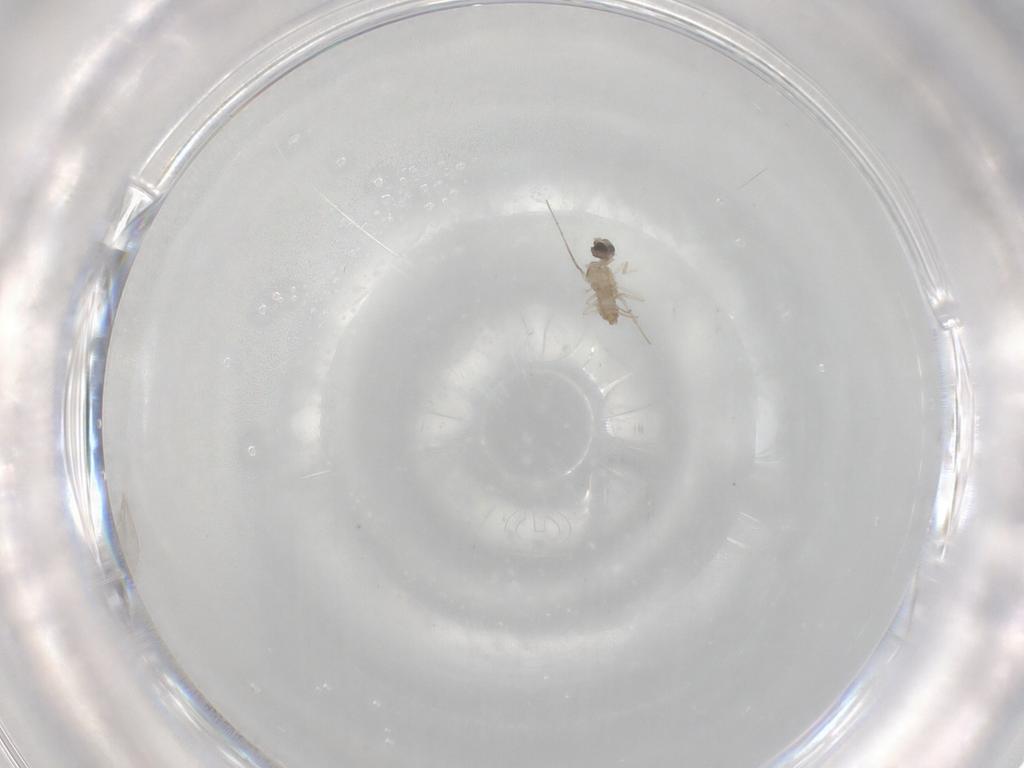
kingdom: Animalia
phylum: Arthropoda
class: Insecta
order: Diptera
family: Cecidomyiidae
